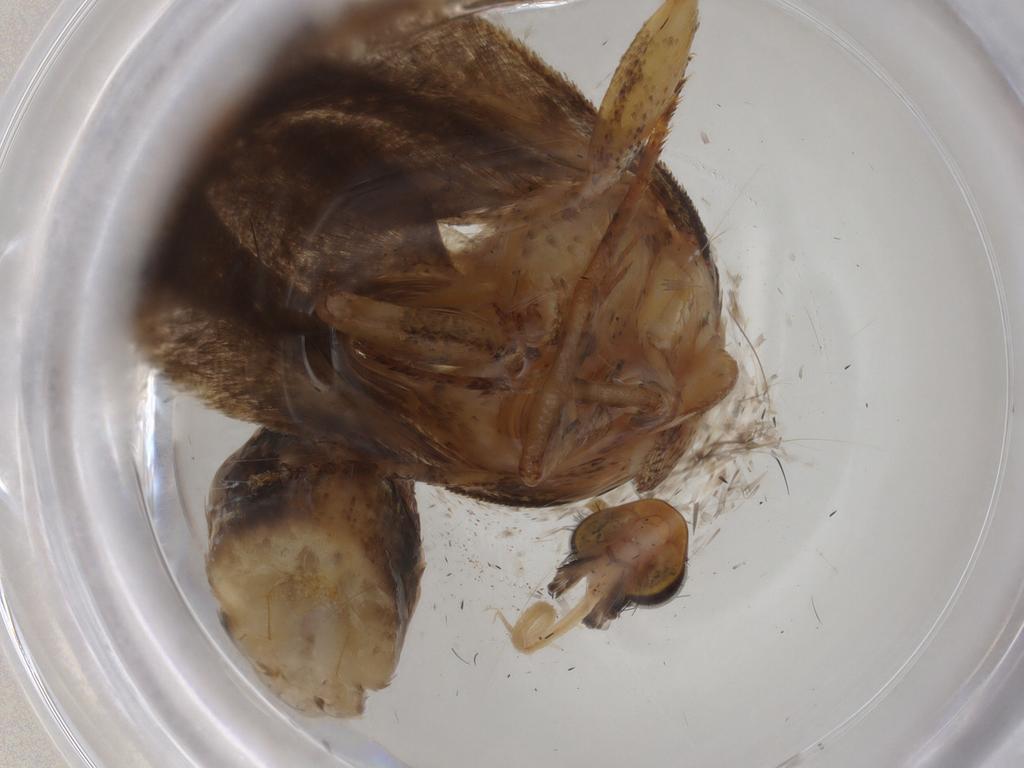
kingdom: Animalia
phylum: Arthropoda
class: Insecta
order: Lepidoptera
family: Gelechiidae
